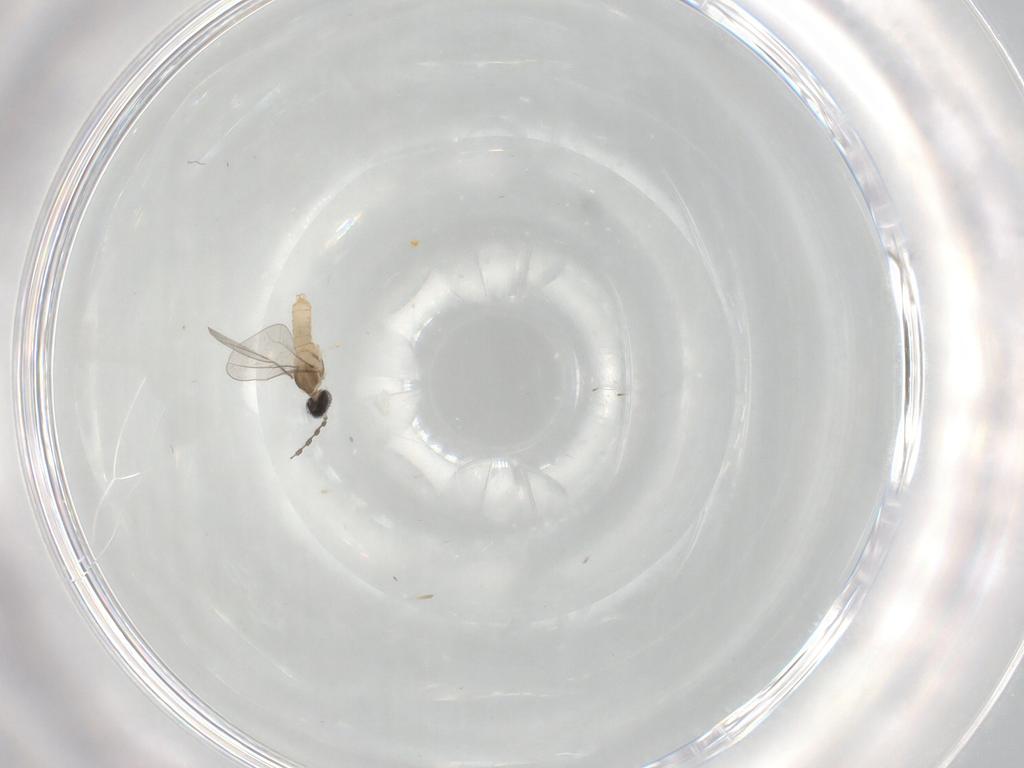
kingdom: Animalia
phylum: Arthropoda
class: Insecta
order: Diptera
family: Cecidomyiidae
